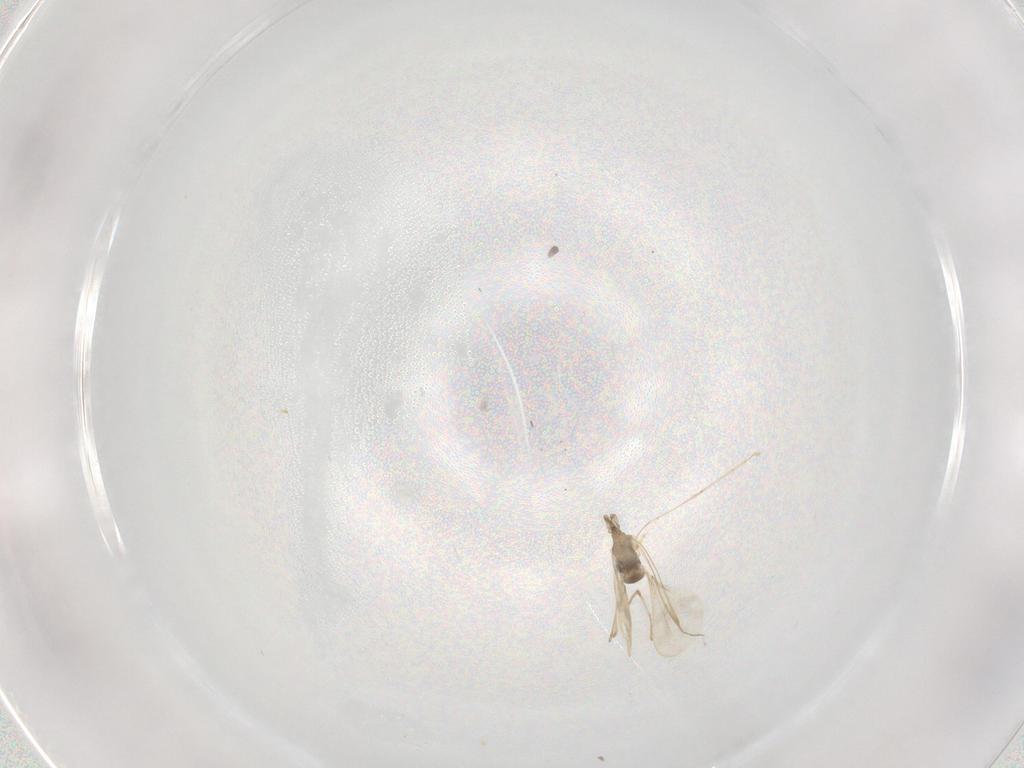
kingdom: Animalia
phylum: Arthropoda
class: Insecta
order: Diptera
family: Cecidomyiidae
